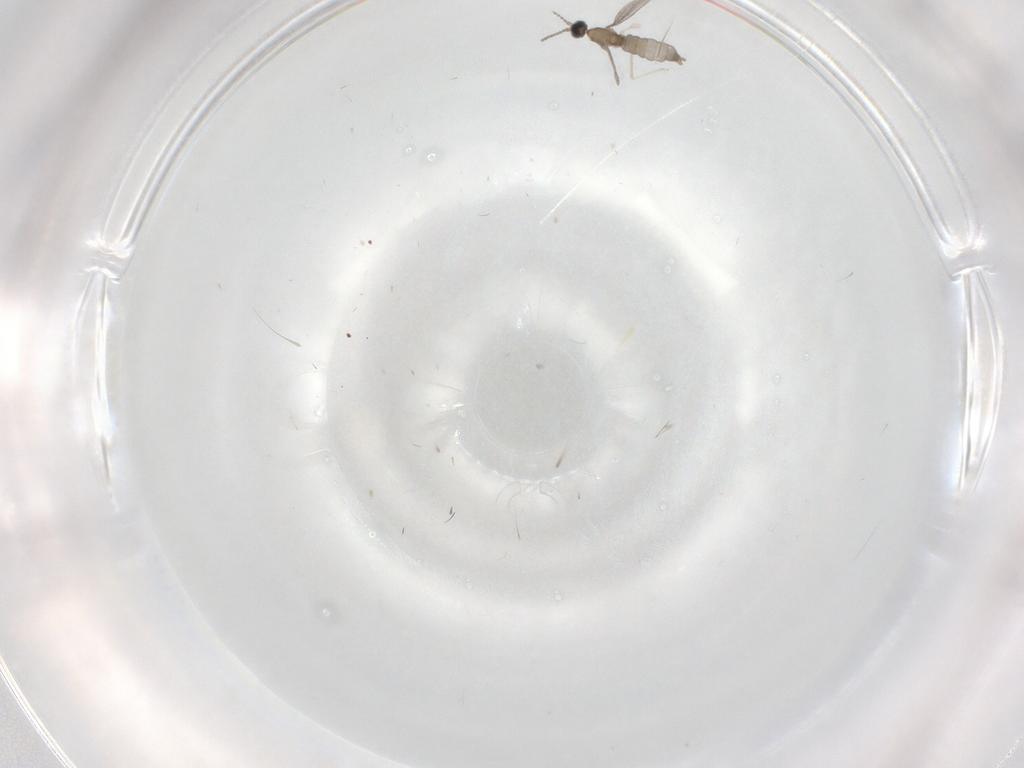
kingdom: Animalia
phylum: Arthropoda
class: Insecta
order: Diptera
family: Cecidomyiidae
